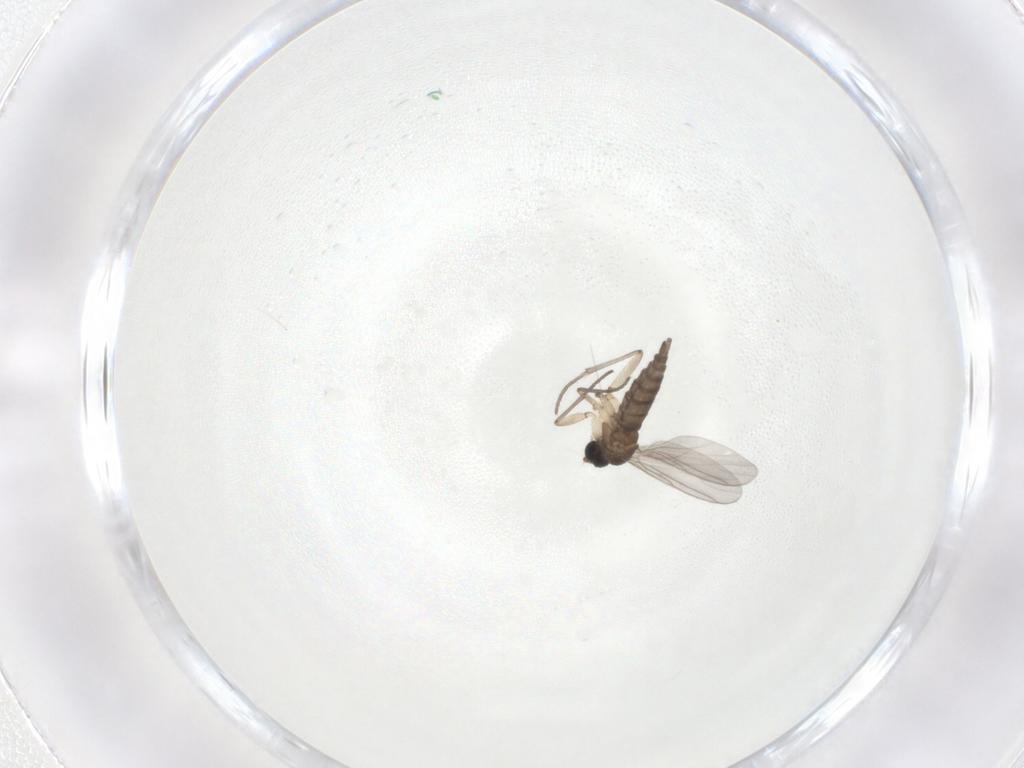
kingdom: Animalia
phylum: Arthropoda
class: Insecta
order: Diptera
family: Sciaridae
